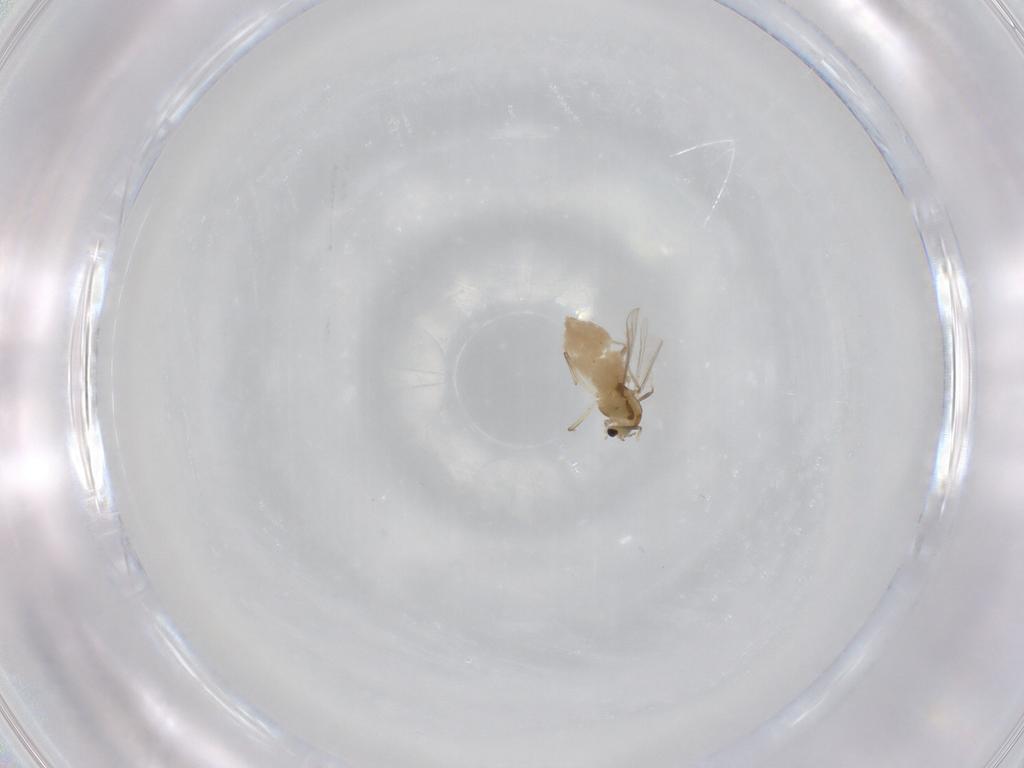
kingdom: Animalia
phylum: Arthropoda
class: Insecta
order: Diptera
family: Chironomidae
